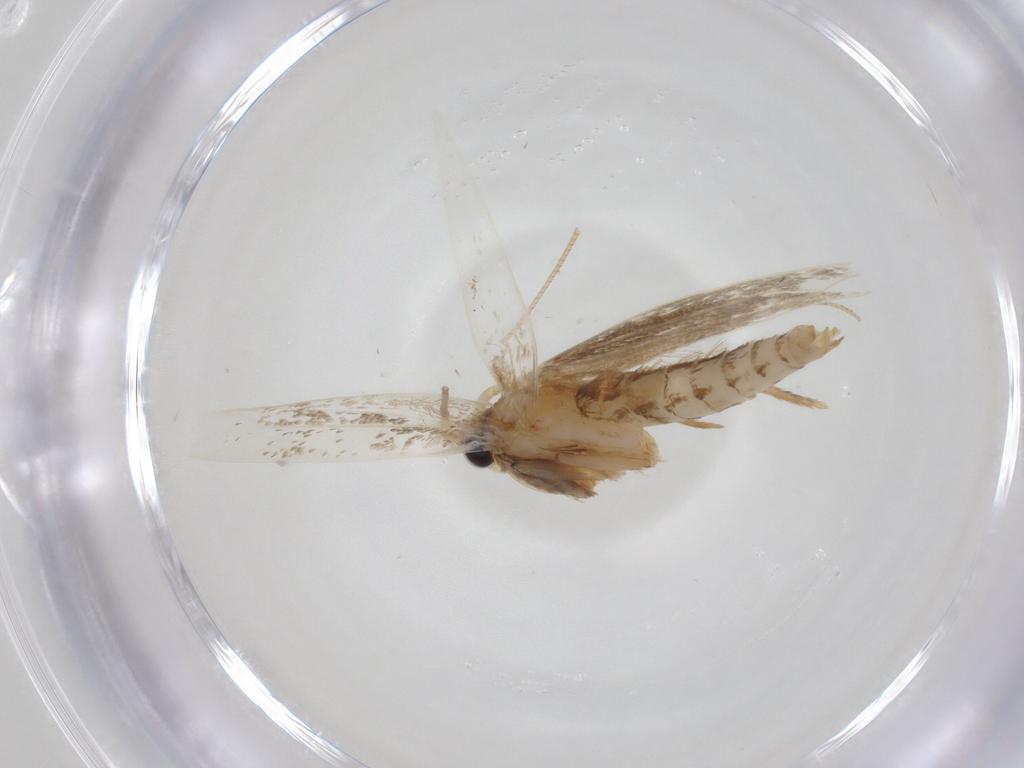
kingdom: Animalia
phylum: Arthropoda
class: Insecta
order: Lepidoptera
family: Tineidae
